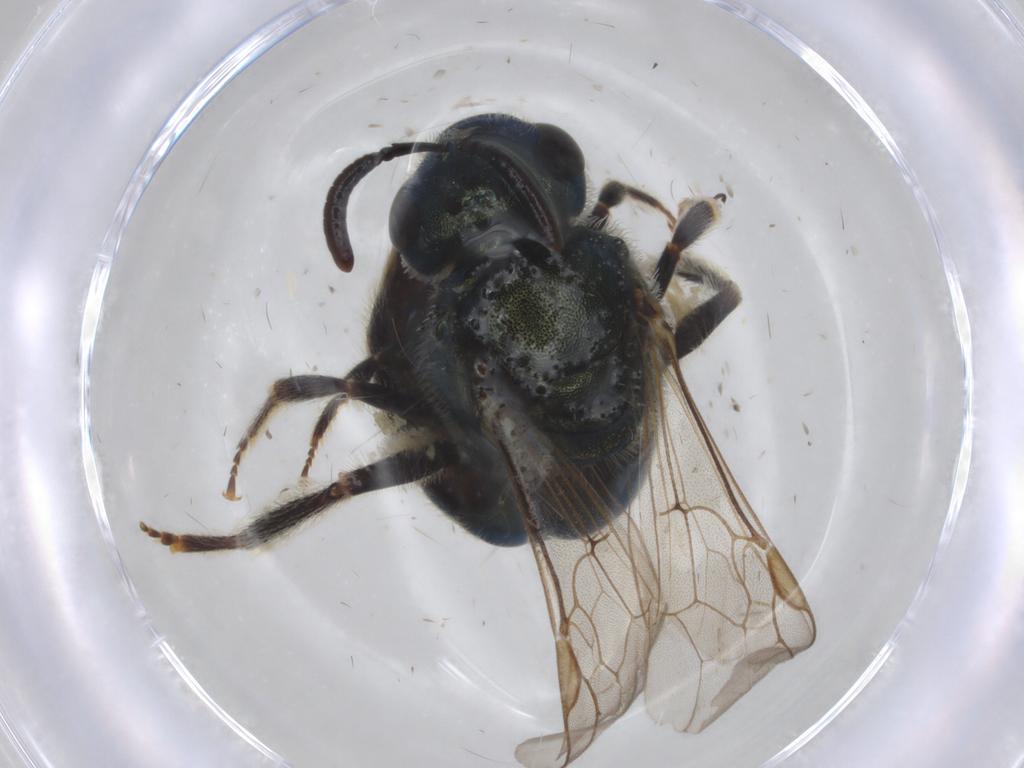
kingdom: Animalia
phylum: Arthropoda
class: Insecta
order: Hymenoptera
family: Halictidae
